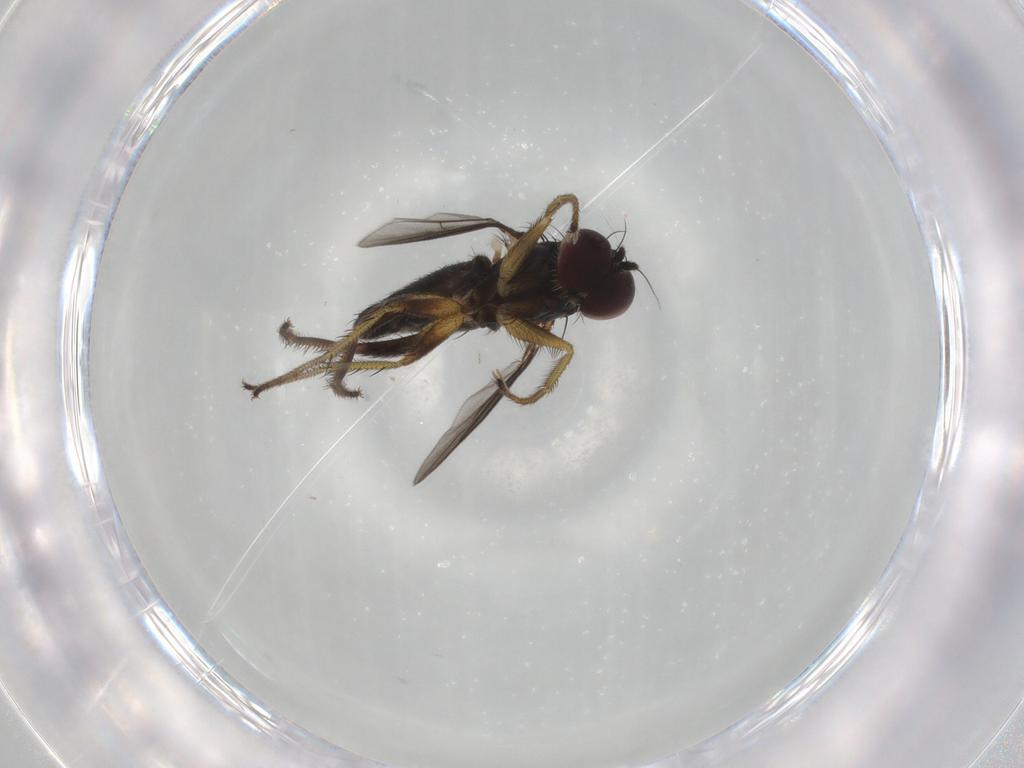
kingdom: Animalia
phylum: Arthropoda
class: Insecta
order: Diptera
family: Dolichopodidae
